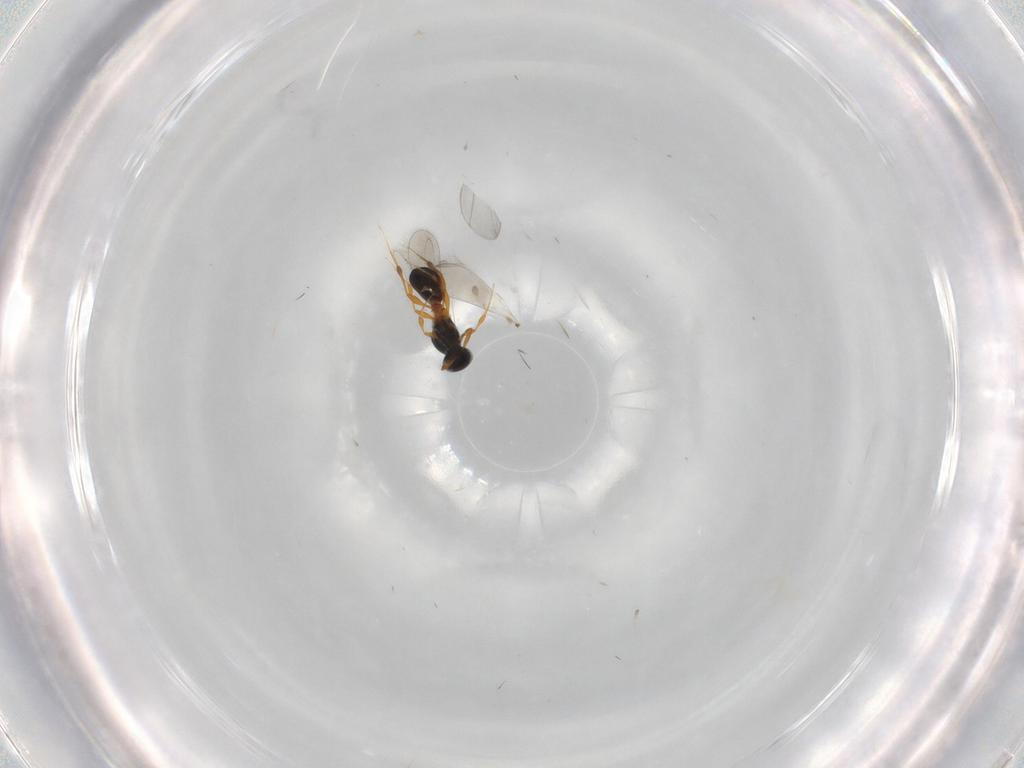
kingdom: Animalia
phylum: Arthropoda
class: Insecta
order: Hymenoptera
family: Platygastridae
